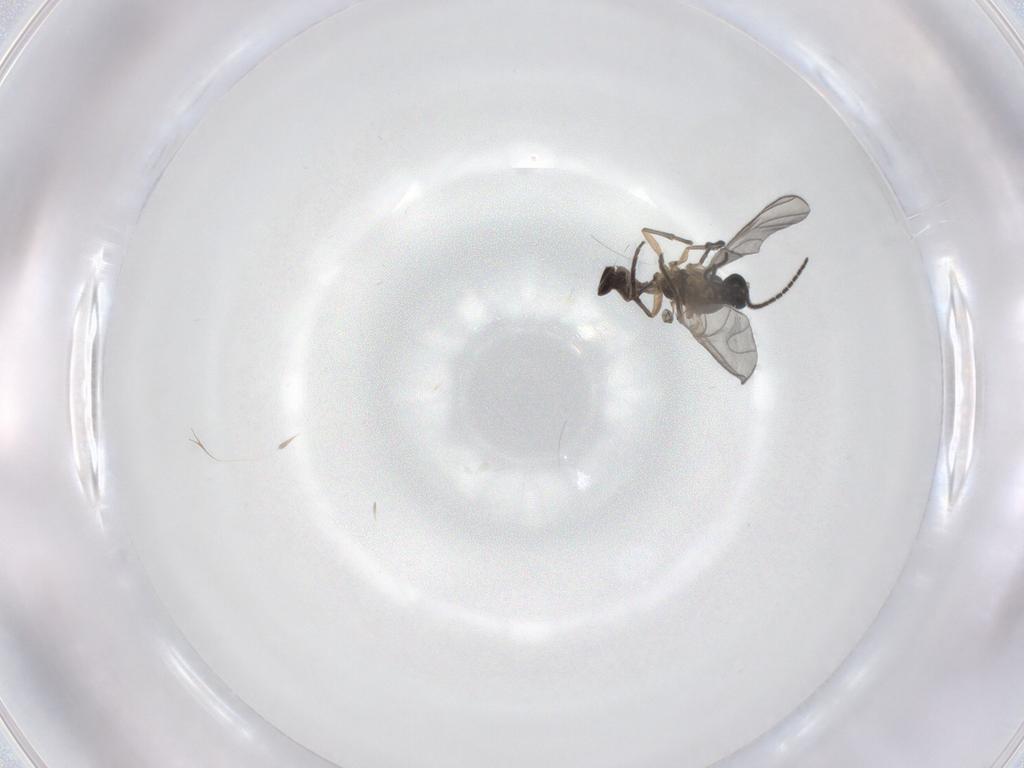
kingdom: Animalia
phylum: Arthropoda
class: Insecta
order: Diptera
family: Sciaridae
